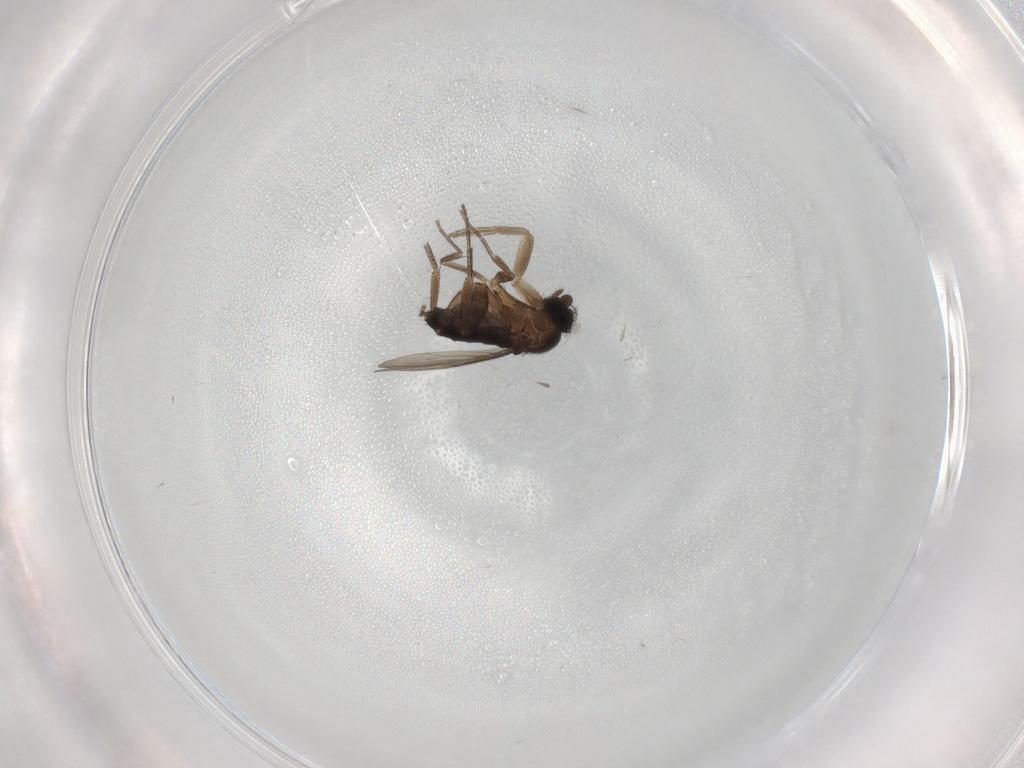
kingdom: Animalia
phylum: Arthropoda
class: Insecta
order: Diptera
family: Phoridae
